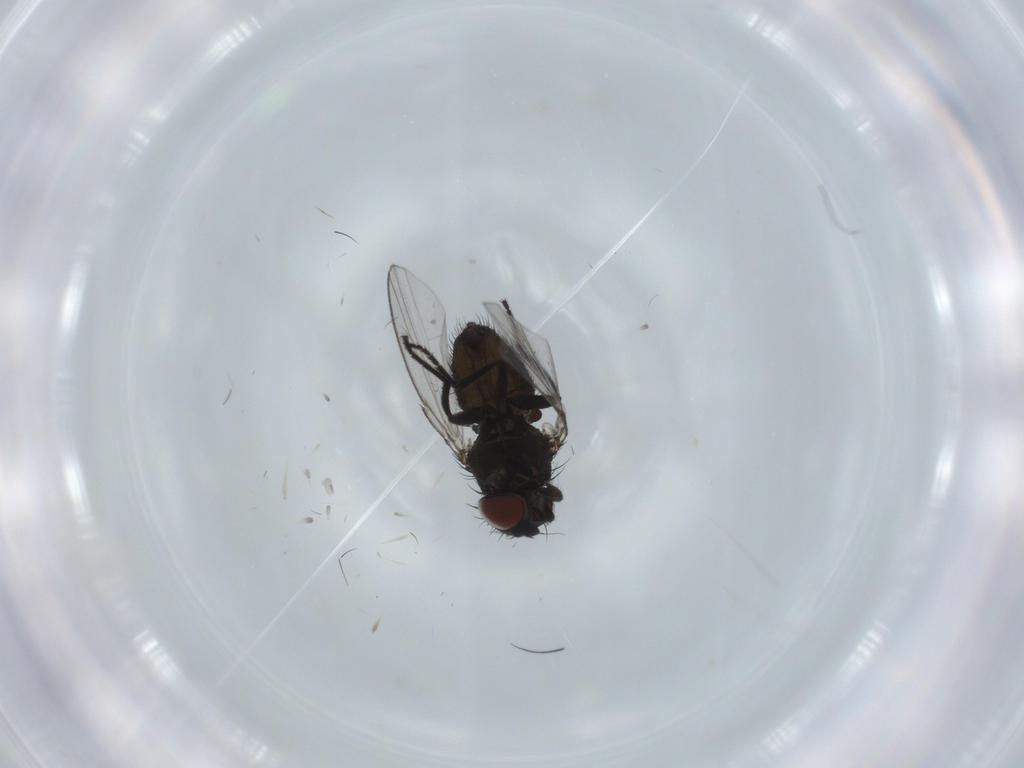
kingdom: Animalia
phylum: Arthropoda
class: Insecta
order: Diptera
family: Milichiidae
